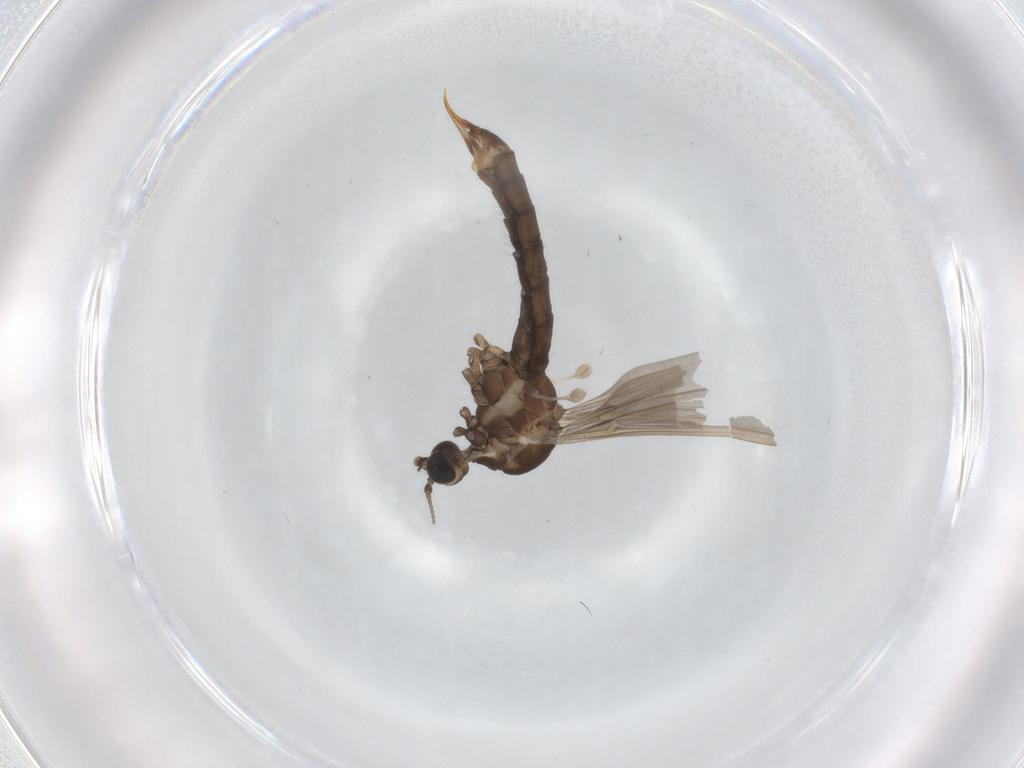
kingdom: Animalia
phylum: Arthropoda
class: Insecta
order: Diptera
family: Limoniidae
